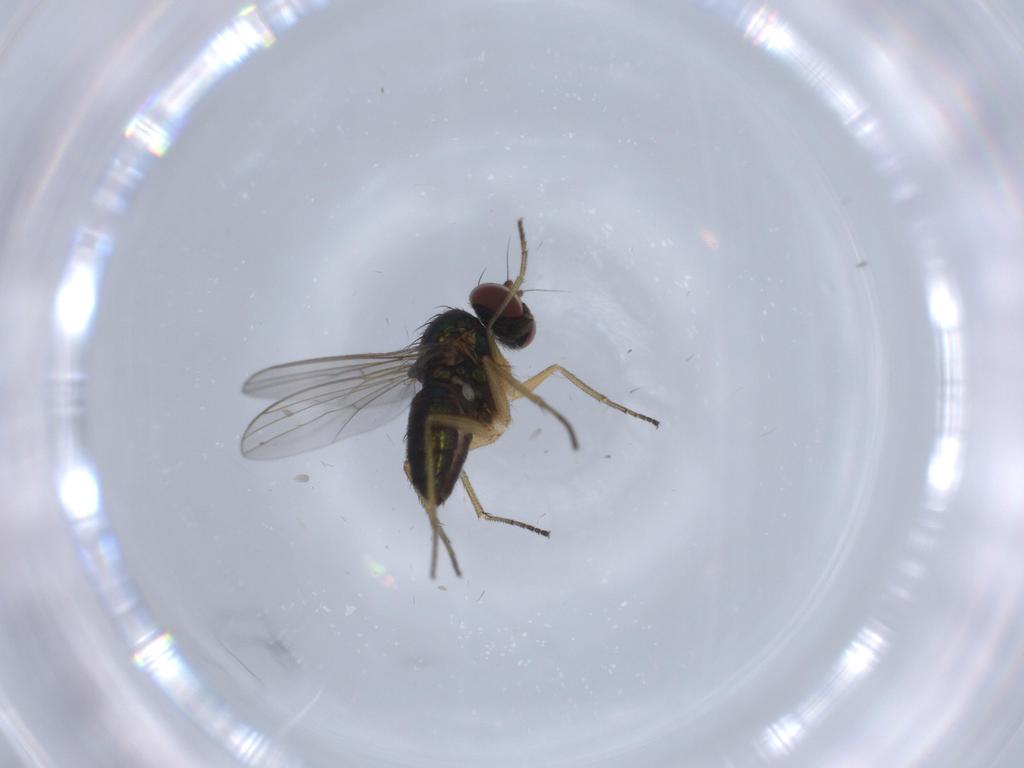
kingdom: Animalia
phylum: Arthropoda
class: Insecta
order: Diptera
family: Dolichopodidae
